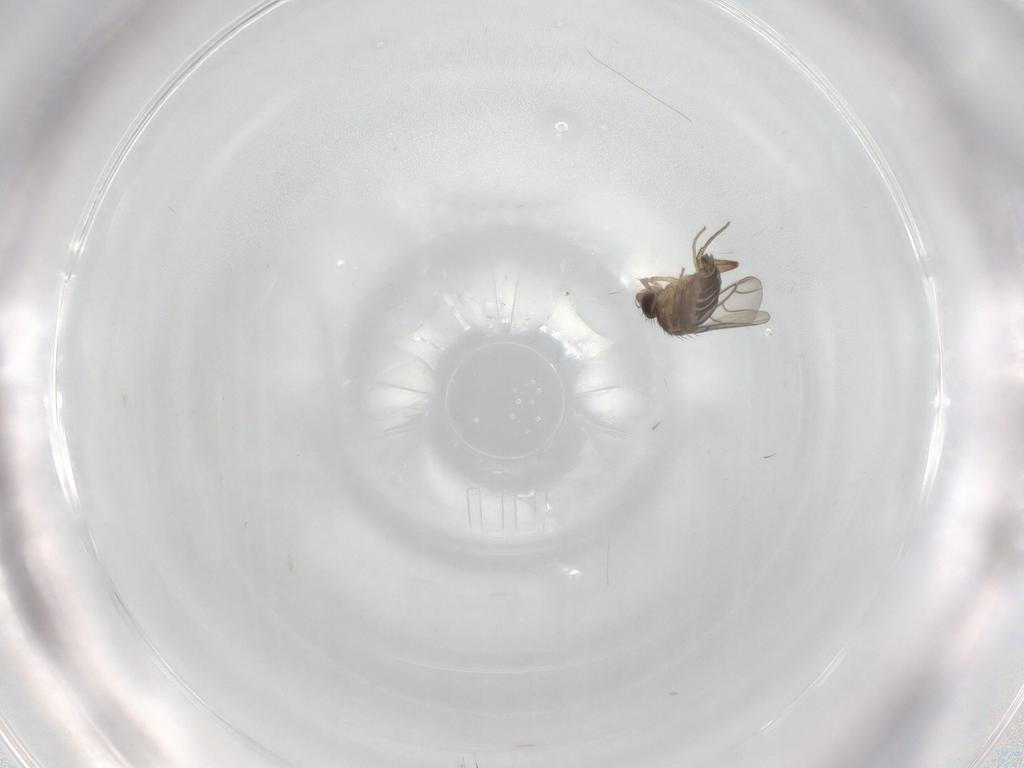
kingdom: Animalia
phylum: Arthropoda
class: Insecta
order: Diptera
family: Phoridae
